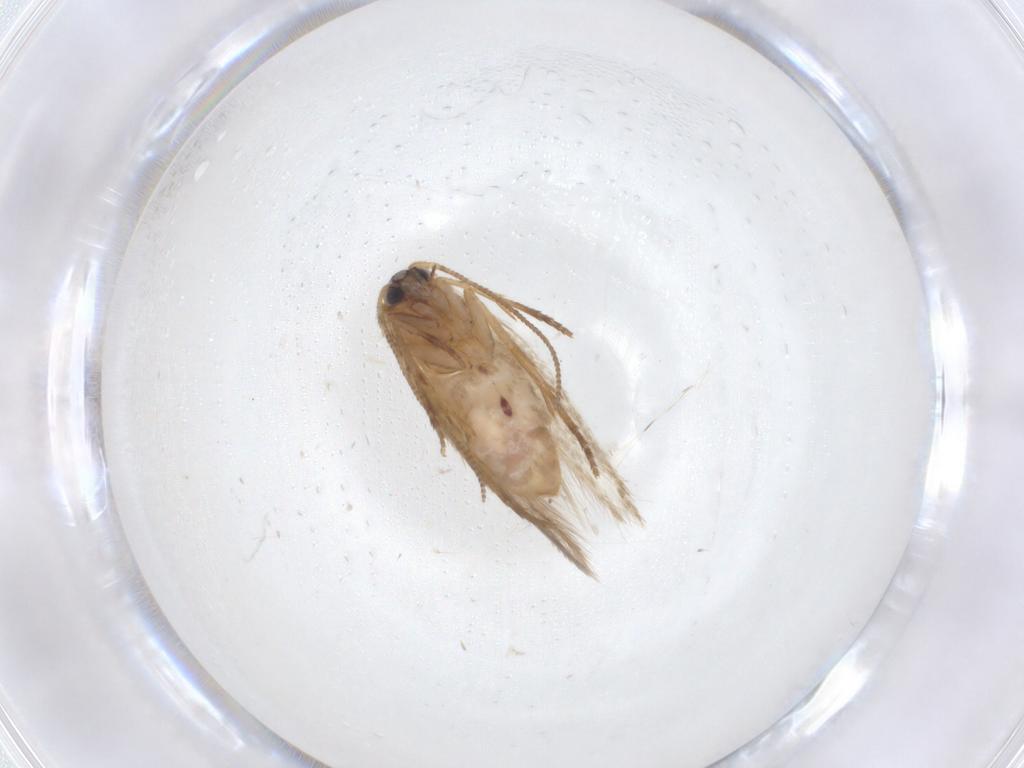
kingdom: Animalia
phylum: Arthropoda
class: Insecta
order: Lepidoptera
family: Nepticulidae
